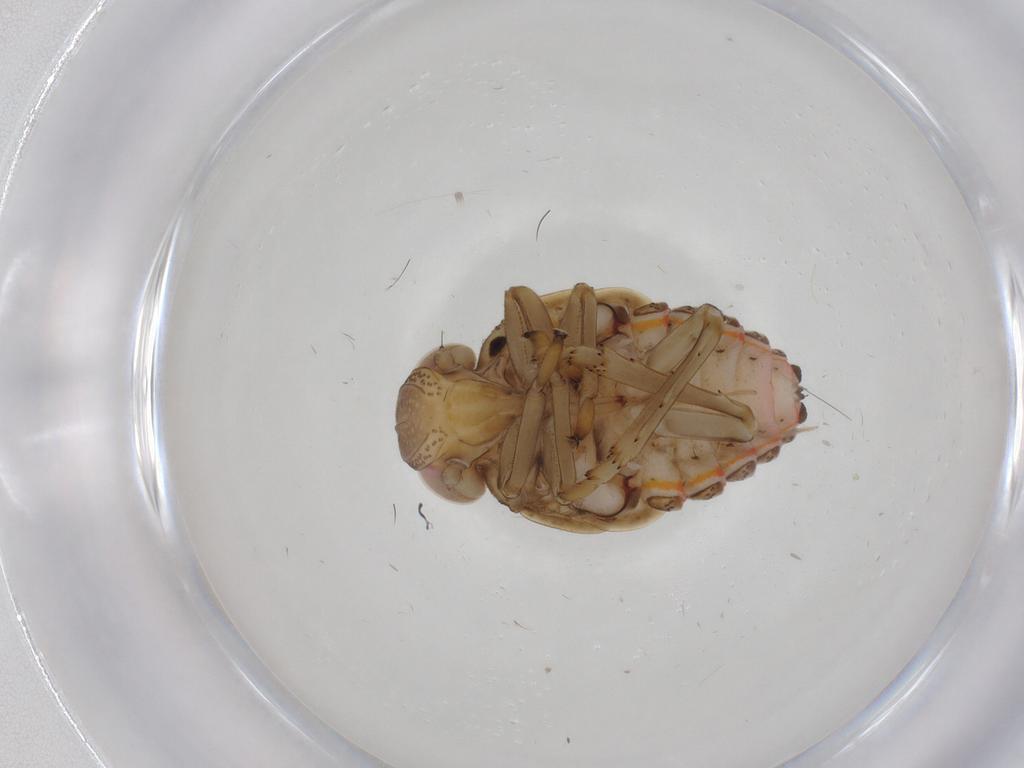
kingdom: Animalia
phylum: Arthropoda
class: Insecta
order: Hemiptera
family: Issidae
